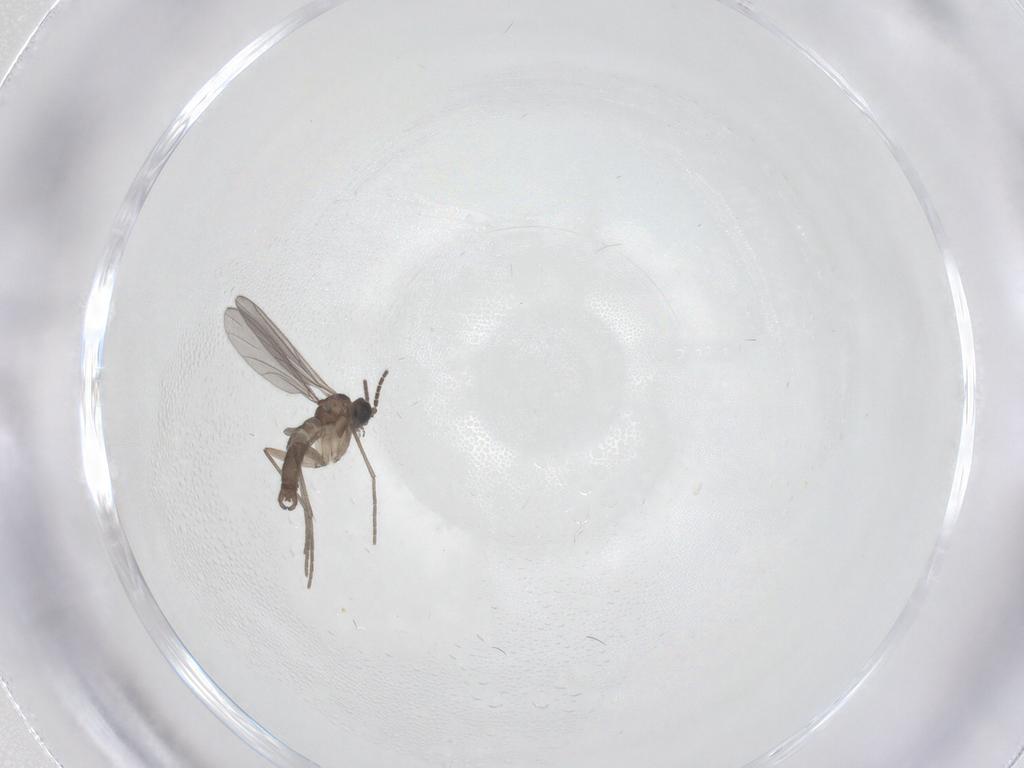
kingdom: Animalia
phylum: Arthropoda
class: Insecta
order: Diptera
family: Sciaridae
